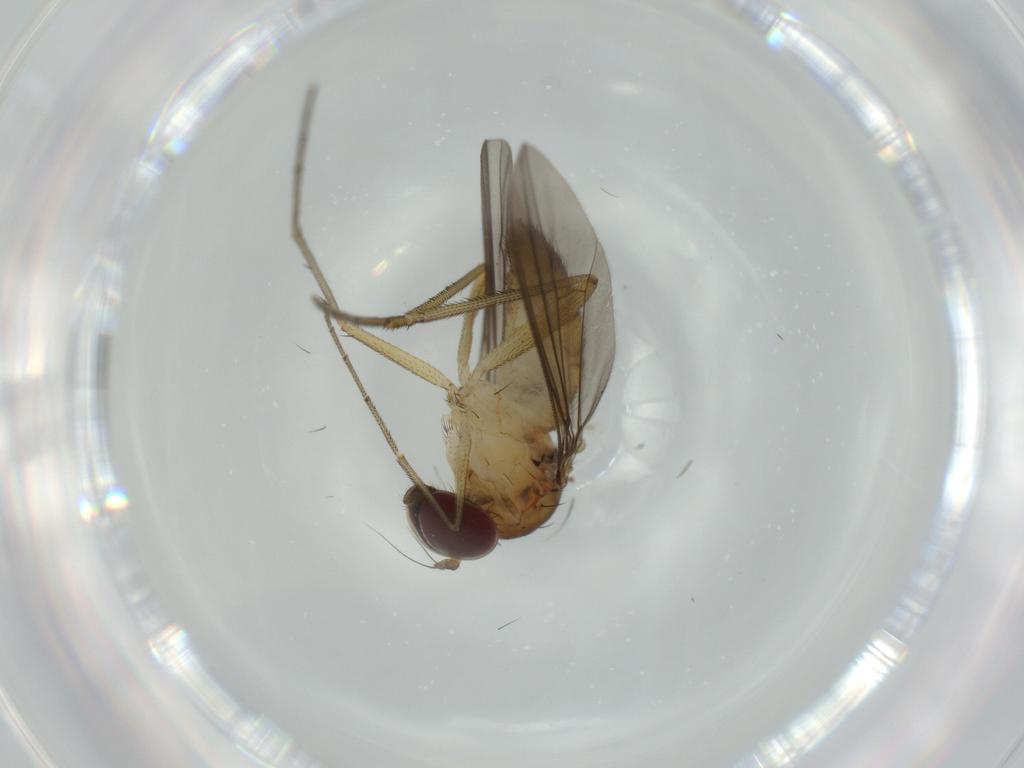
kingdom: Animalia
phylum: Arthropoda
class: Insecta
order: Diptera
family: Dolichopodidae
